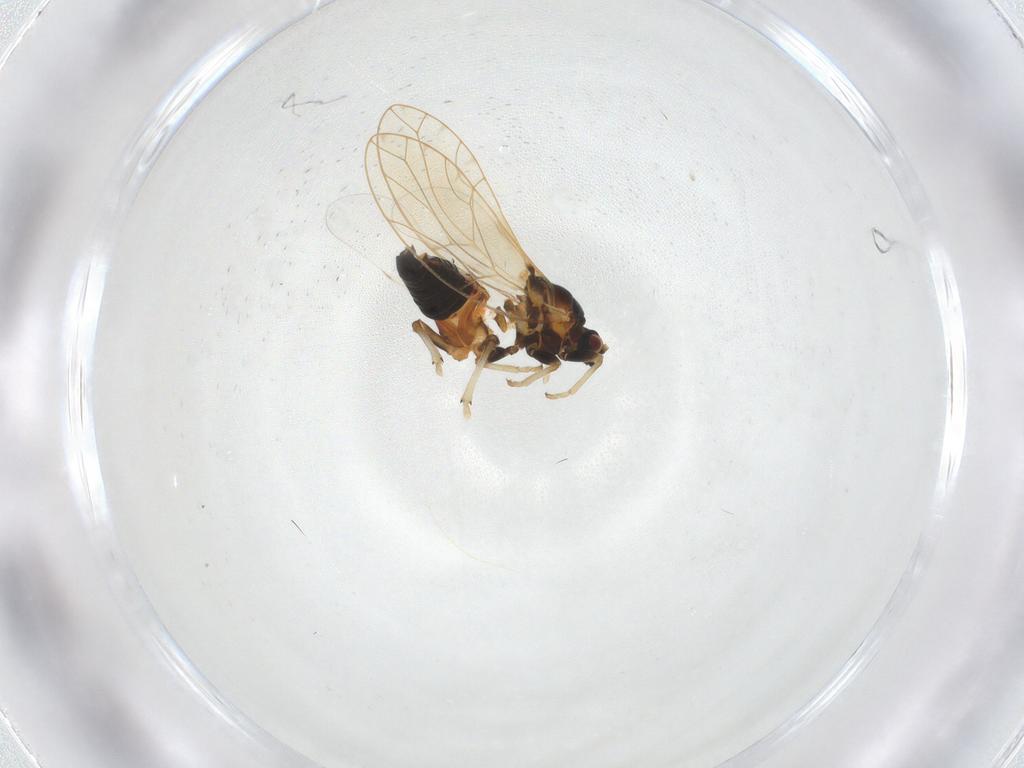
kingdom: Animalia
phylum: Arthropoda
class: Insecta
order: Hemiptera
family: Triozidae
